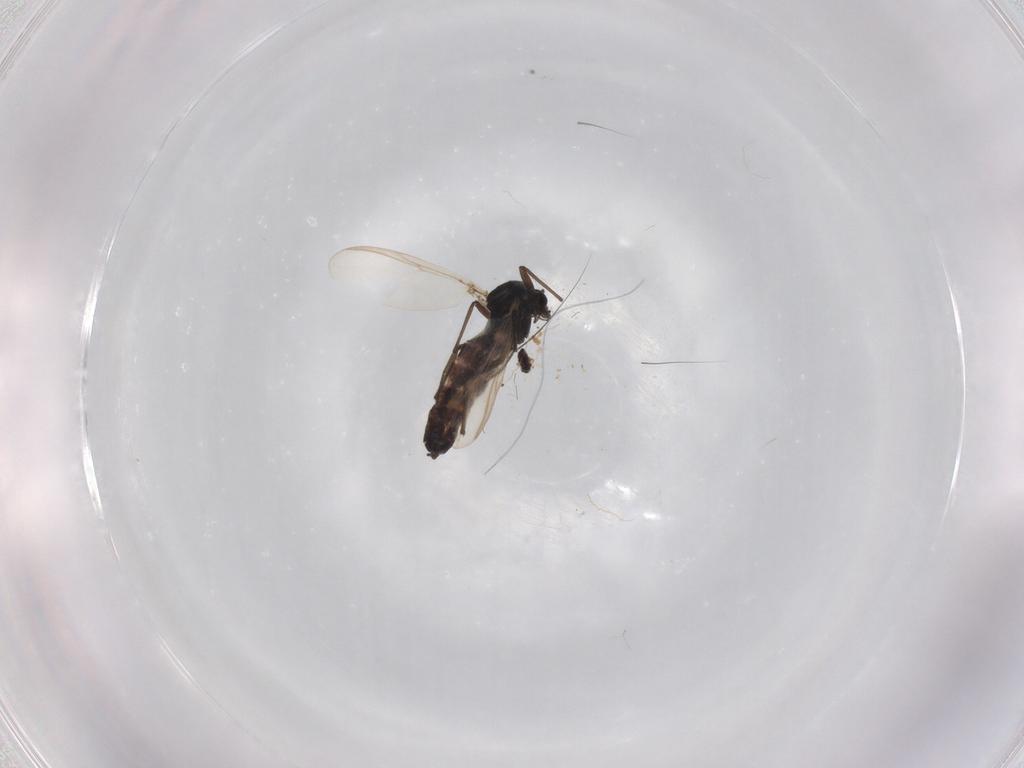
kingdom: Animalia
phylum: Arthropoda
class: Insecta
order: Diptera
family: Chironomidae
